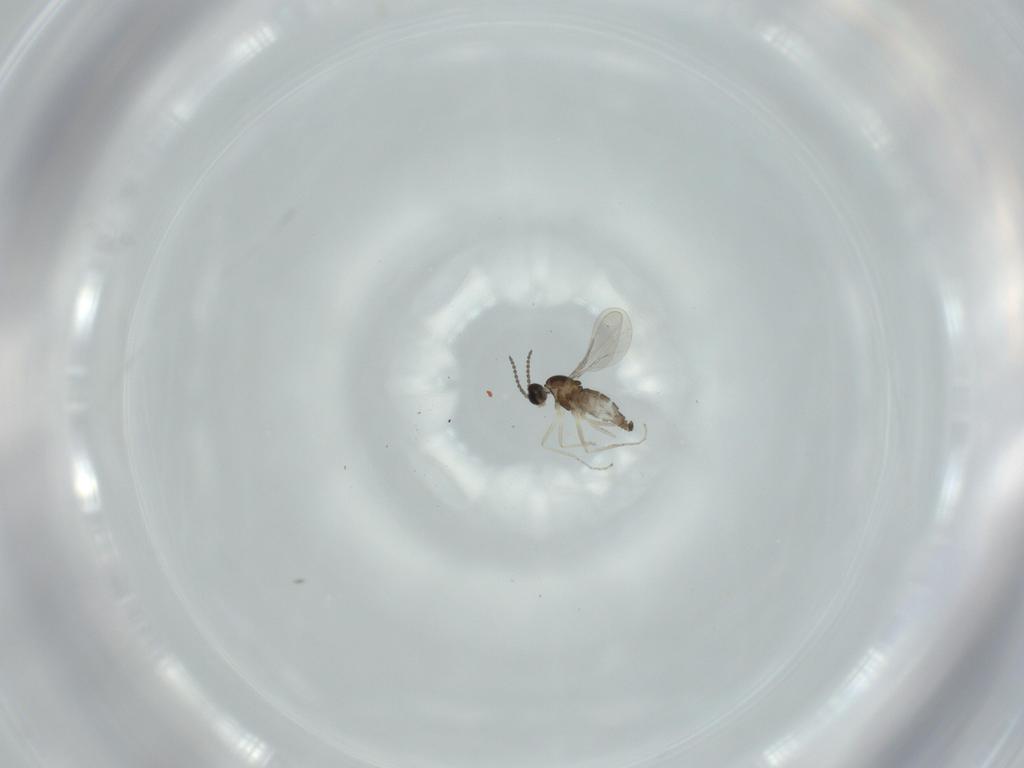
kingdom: Animalia
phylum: Arthropoda
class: Insecta
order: Diptera
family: Cecidomyiidae
